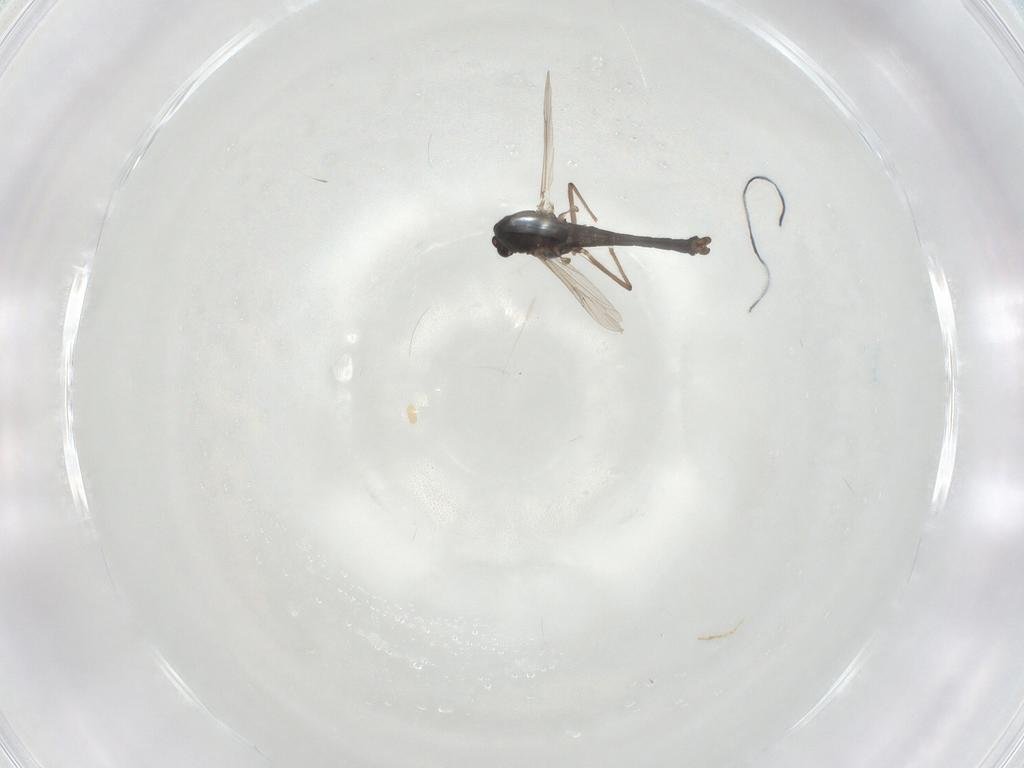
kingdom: Animalia
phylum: Arthropoda
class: Insecta
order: Diptera
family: Chironomidae
